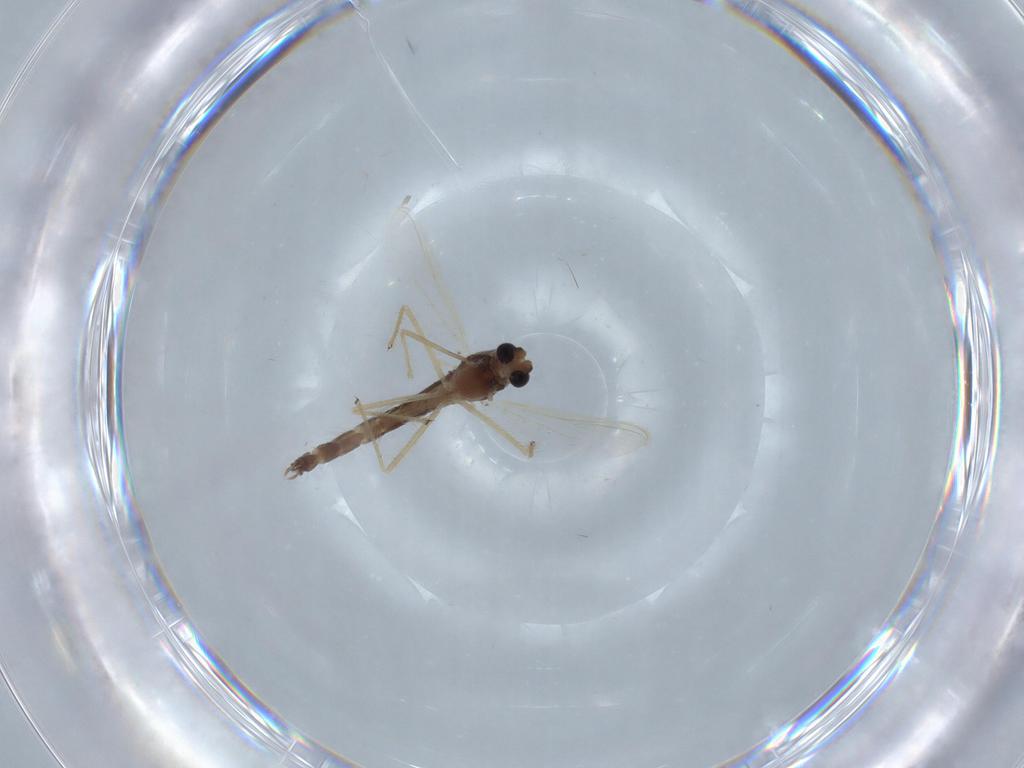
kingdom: Animalia
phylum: Arthropoda
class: Insecta
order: Diptera
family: Chironomidae
